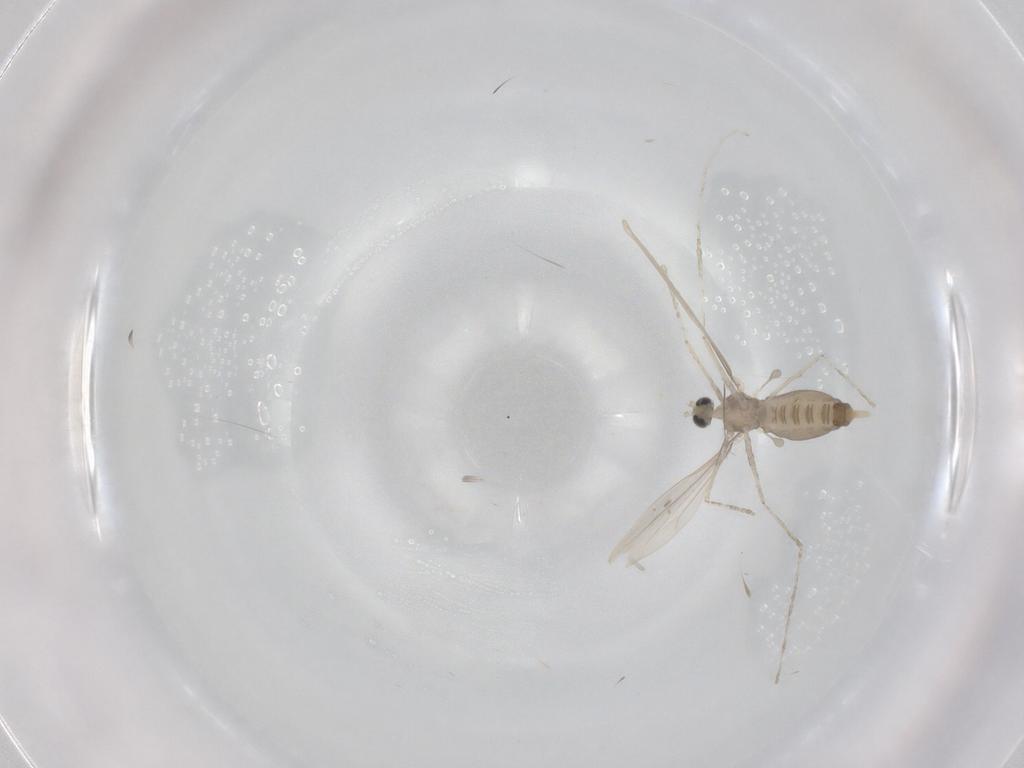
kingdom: Animalia
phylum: Arthropoda
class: Insecta
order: Diptera
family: Cecidomyiidae
